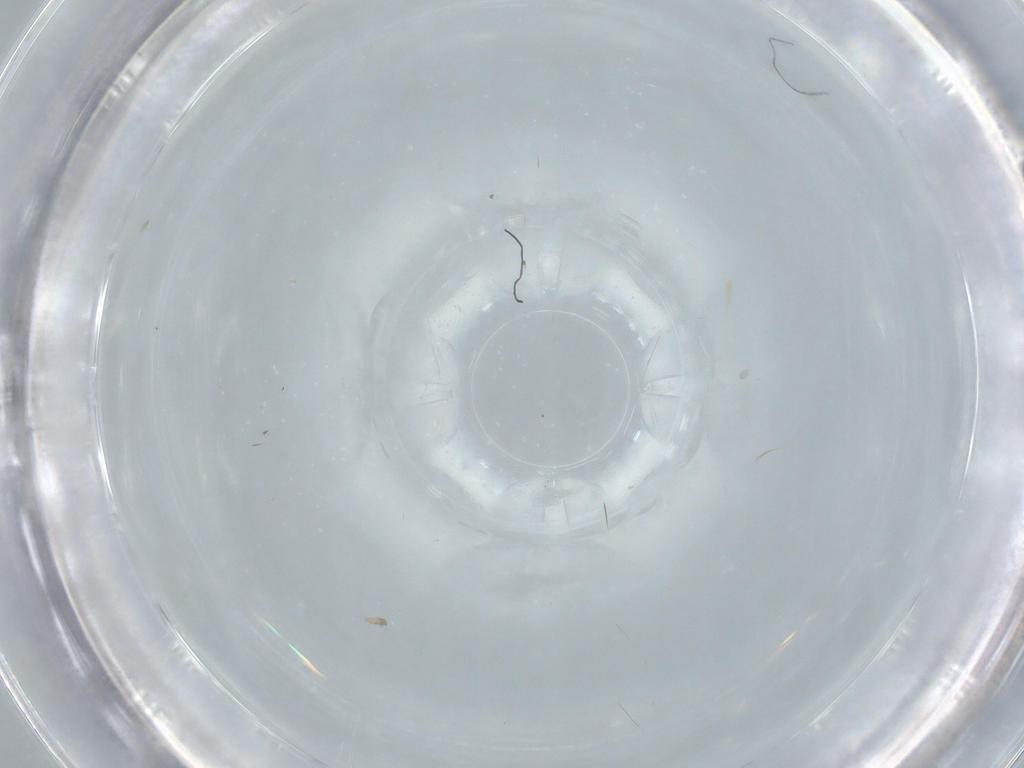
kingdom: Animalia
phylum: Arthropoda
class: Insecta
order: Diptera
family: Cecidomyiidae
